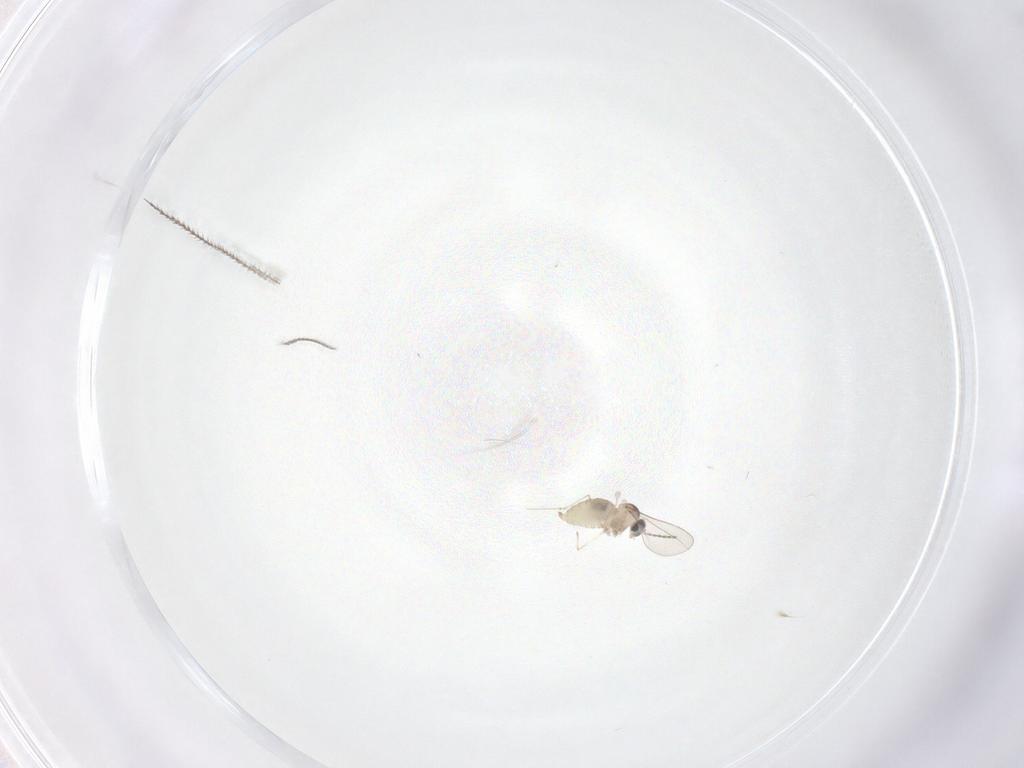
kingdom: Animalia
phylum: Arthropoda
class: Insecta
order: Diptera
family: Cecidomyiidae
